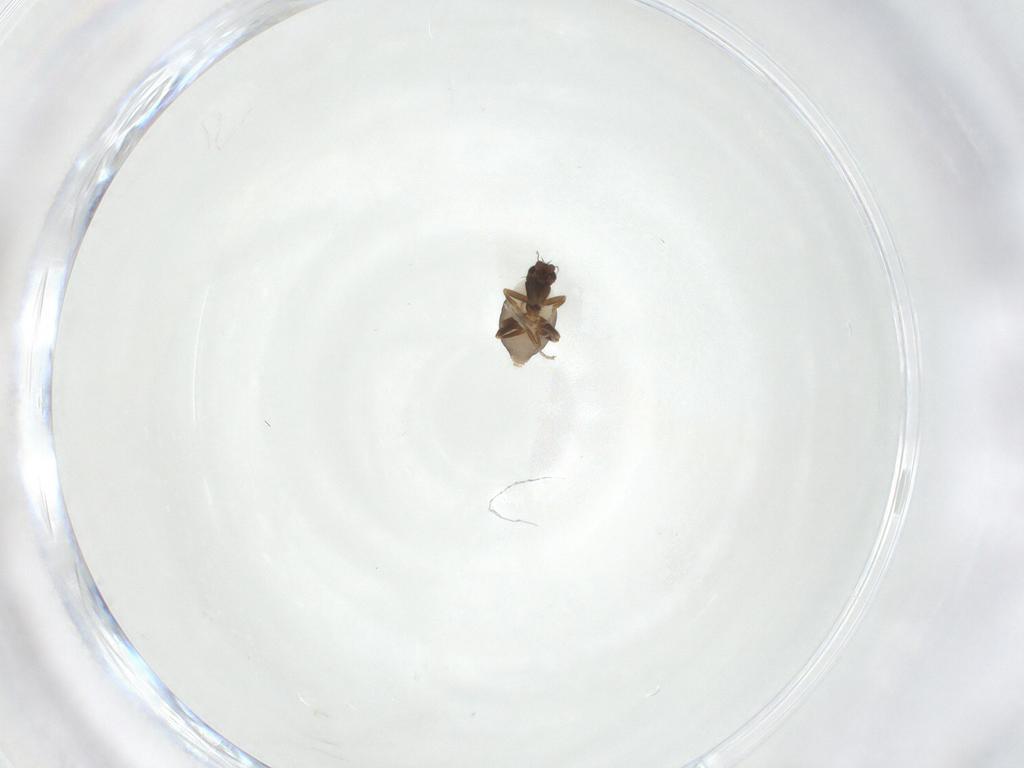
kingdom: Animalia
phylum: Arthropoda
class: Insecta
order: Diptera
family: Phoridae
